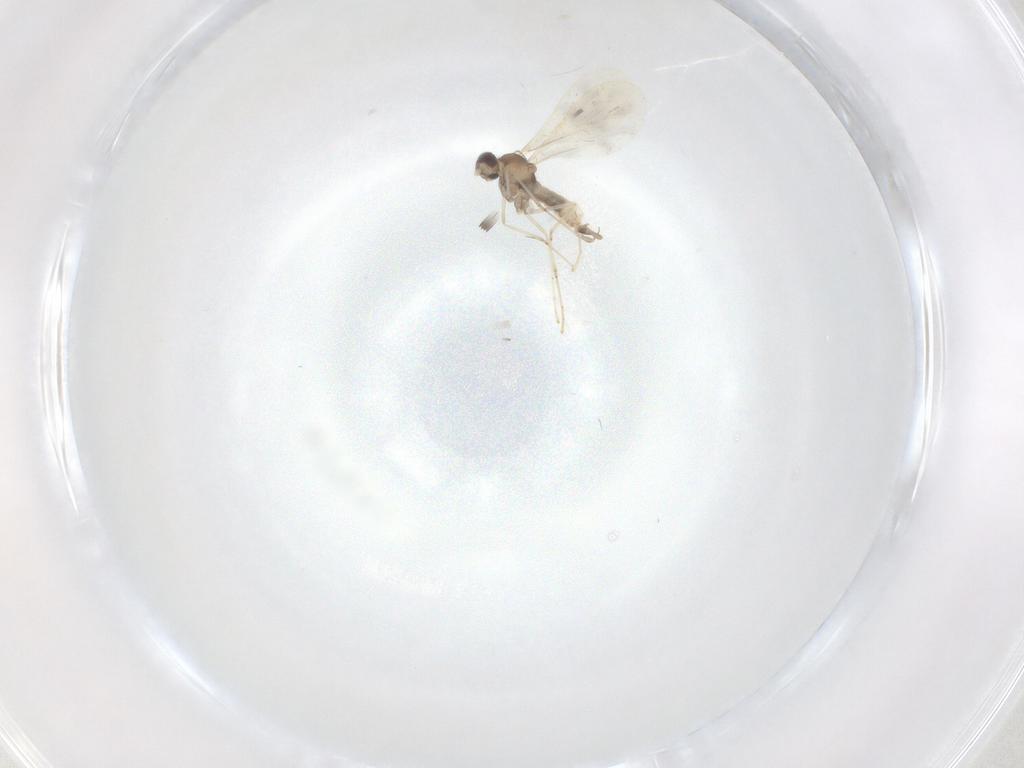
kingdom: Animalia
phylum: Arthropoda
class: Insecta
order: Diptera
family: Cecidomyiidae
